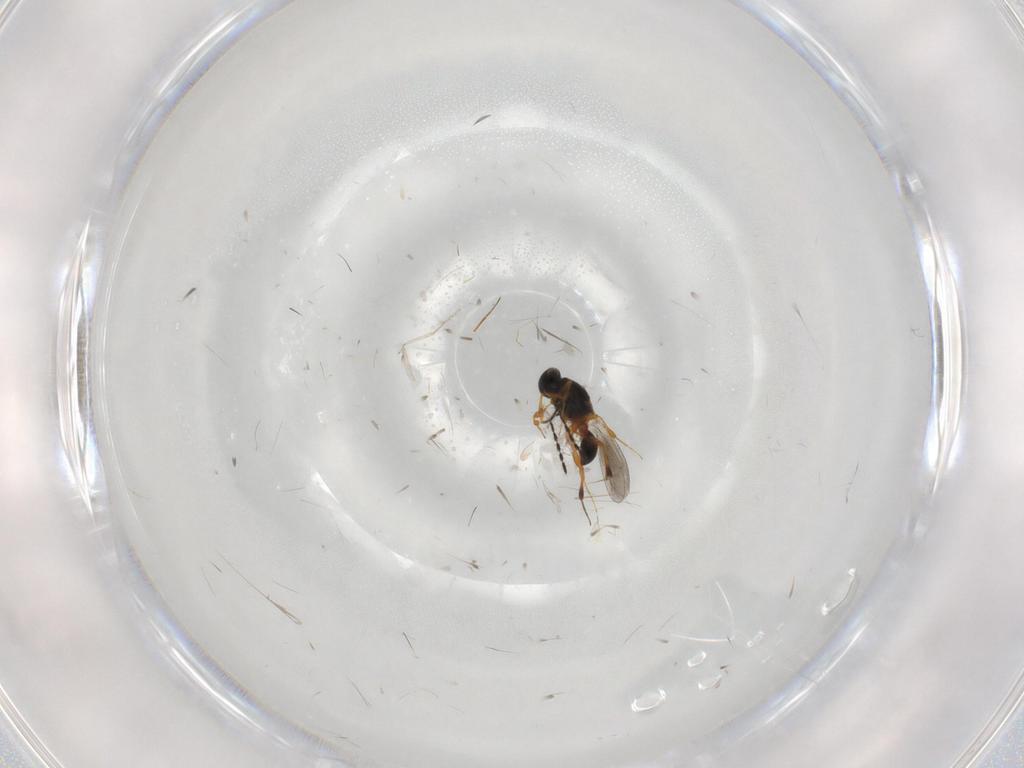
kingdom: Animalia
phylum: Arthropoda
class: Insecta
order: Hymenoptera
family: Platygastridae
